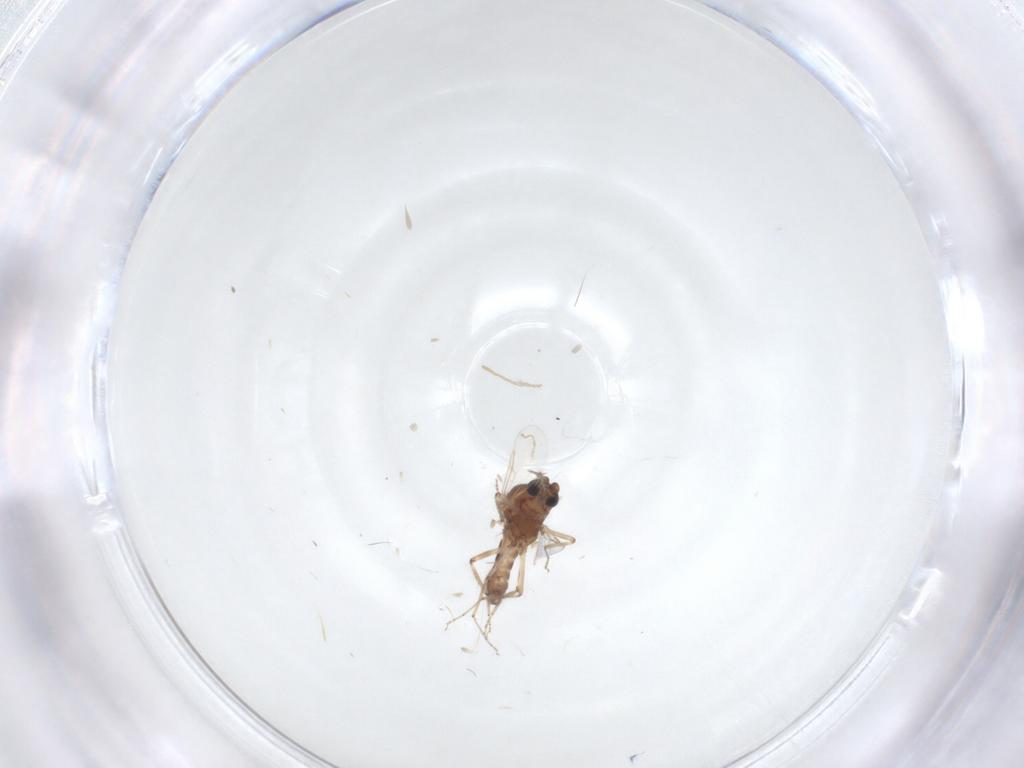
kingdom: Animalia
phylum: Arthropoda
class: Insecta
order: Diptera
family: Ceratopogonidae
